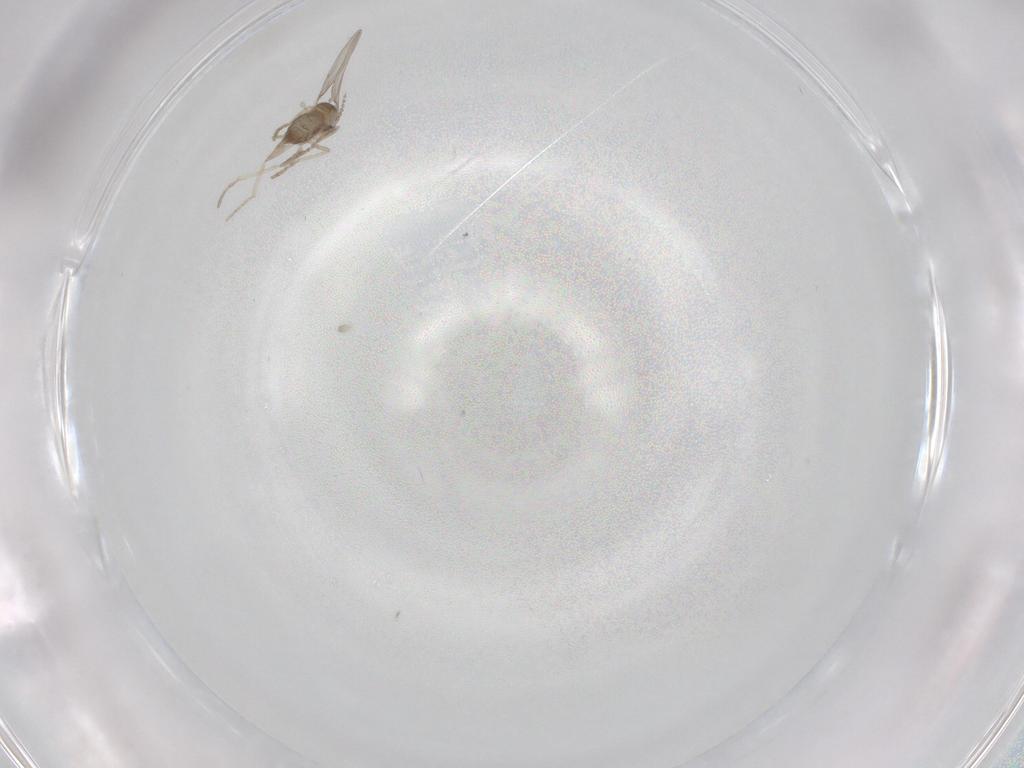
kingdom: Animalia
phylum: Arthropoda
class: Insecta
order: Diptera
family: Cecidomyiidae
